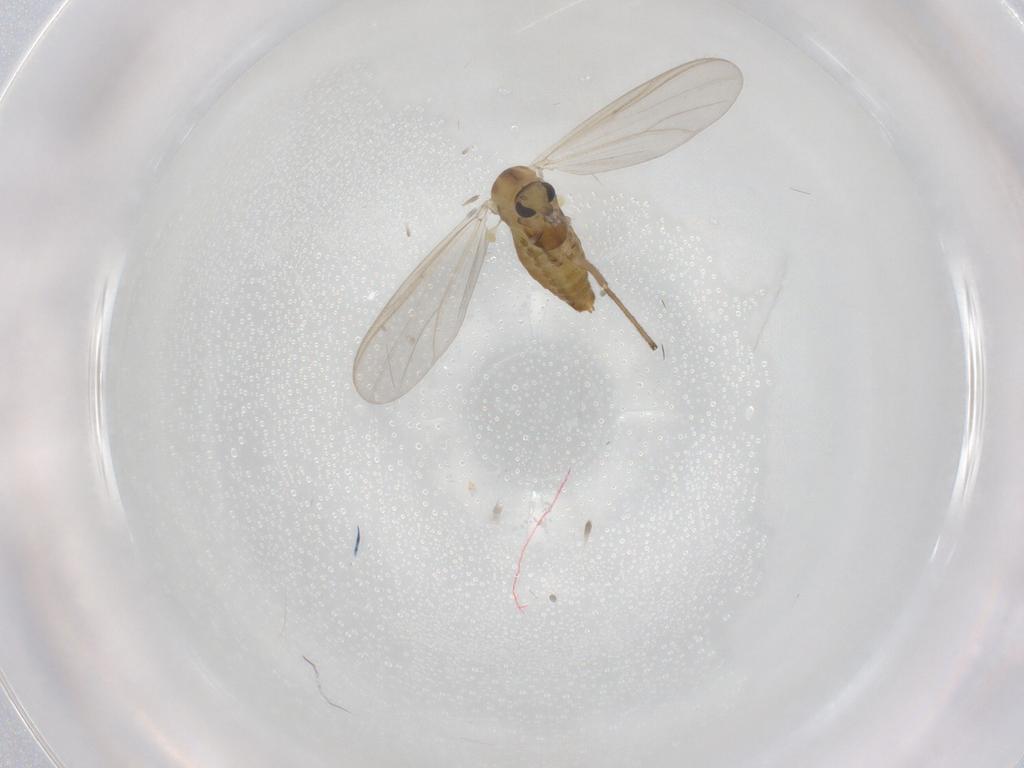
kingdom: Animalia
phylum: Arthropoda
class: Insecta
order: Diptera
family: Chironomidae
